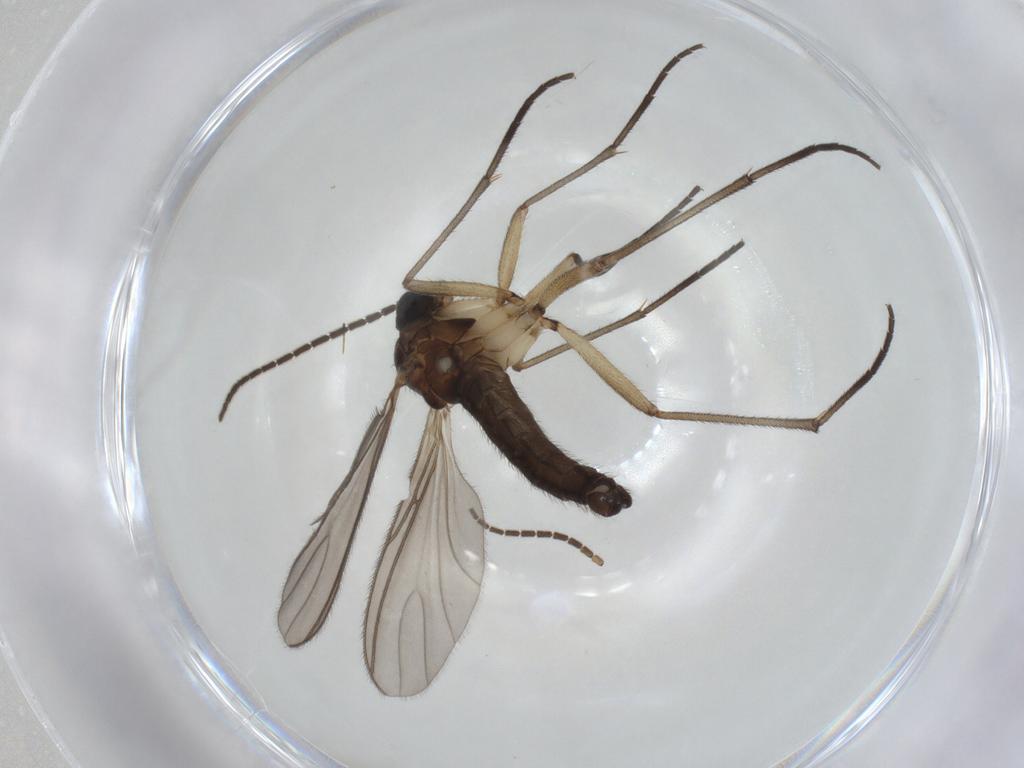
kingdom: Animalia
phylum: Arthropoda
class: Insecta
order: Diptera
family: Sciaridae
